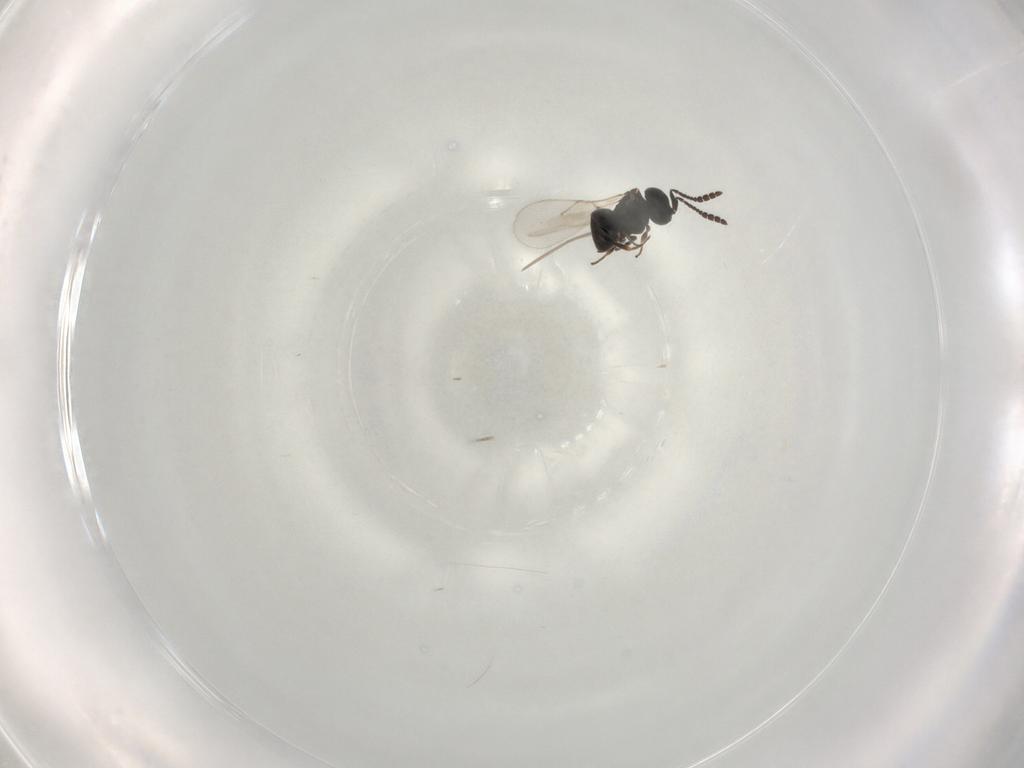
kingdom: Animalia
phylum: Arthropoda
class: Insecta
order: Hymenoptera
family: Scelionidae
